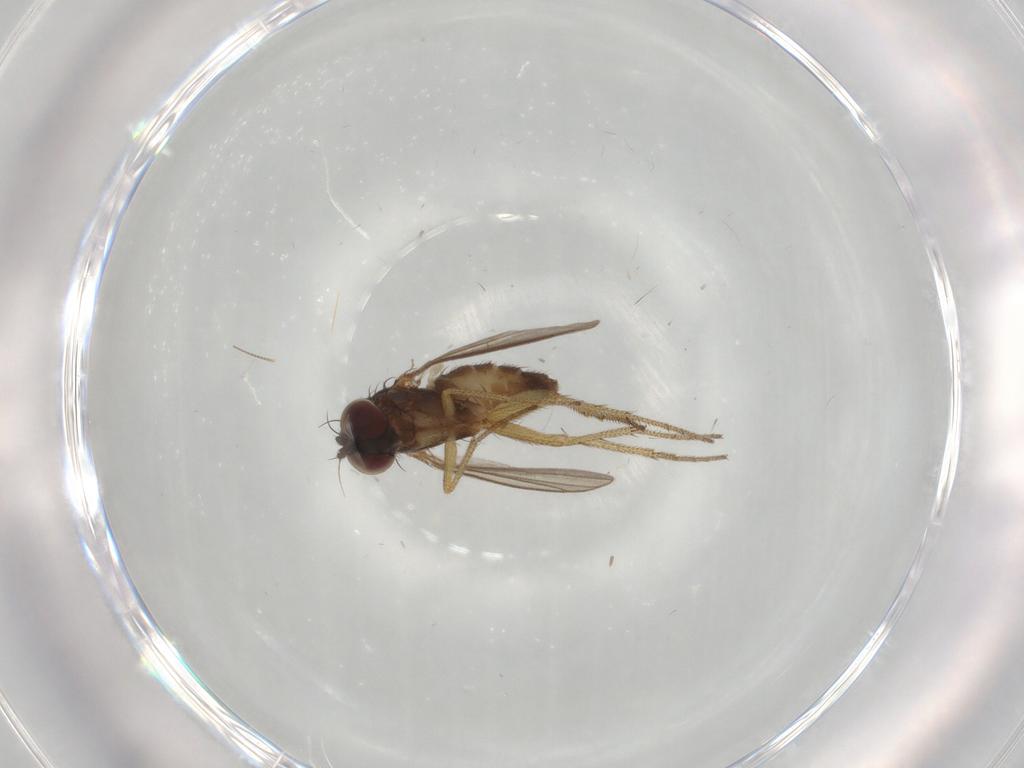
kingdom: Animalia
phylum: Arthropoda
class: Insecta
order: Diptera
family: Dolichopodidae
